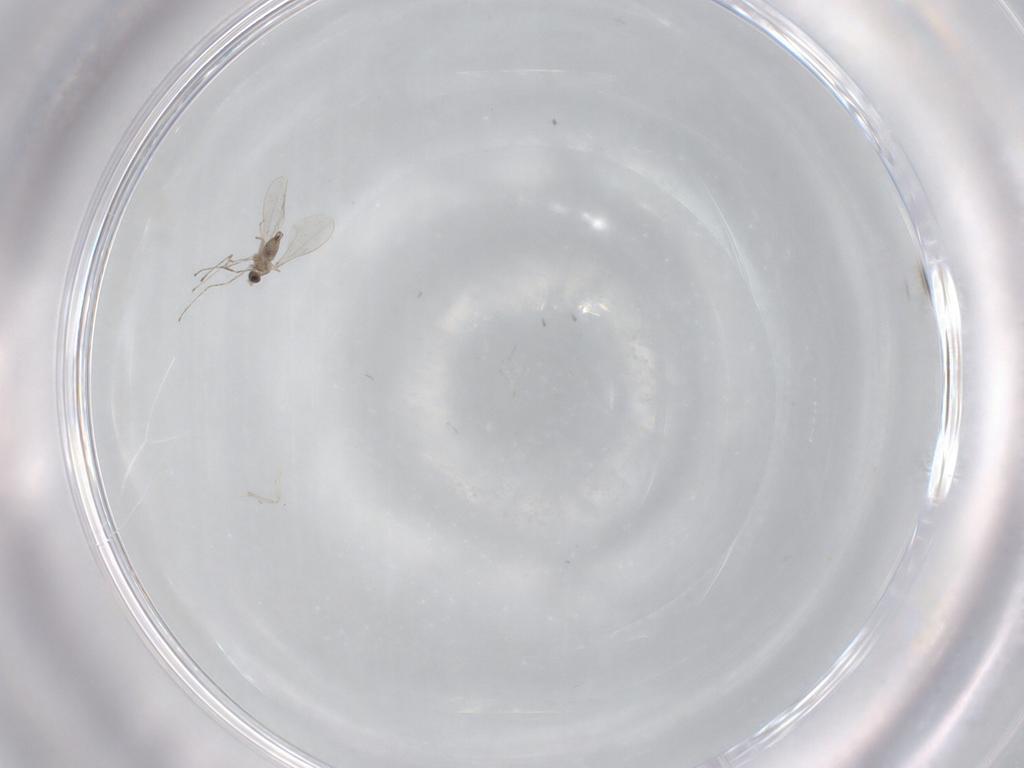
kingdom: Animalia
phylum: Arthropoda
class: Insecta
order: Diptera
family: Cecidomyiidae
